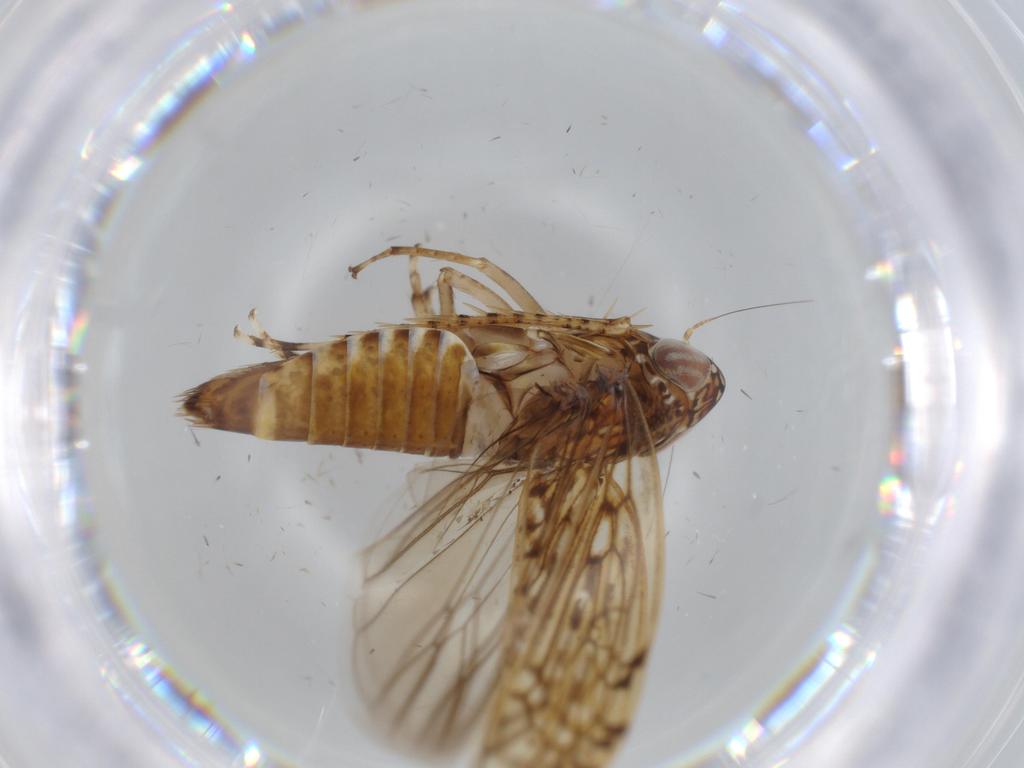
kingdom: Animalia
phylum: Arthropoda
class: Insecta
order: Hemiptera
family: Cicadellidae
